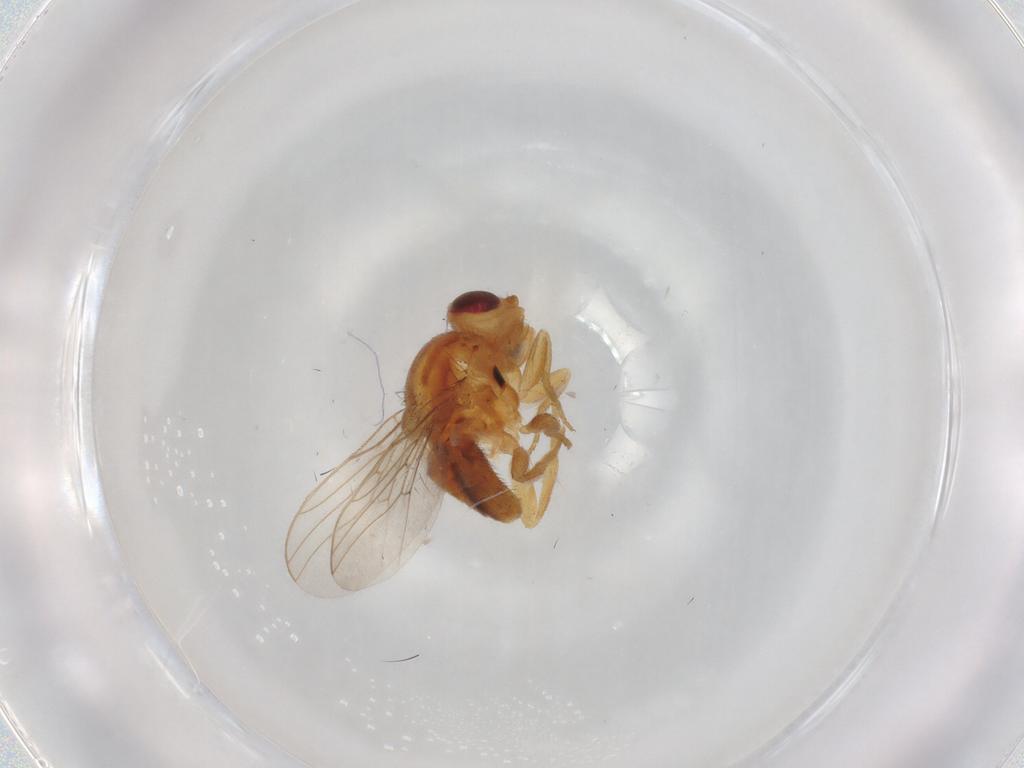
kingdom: Animalia
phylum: Arthropoda
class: Insecta
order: Diptera
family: Chloropidae
